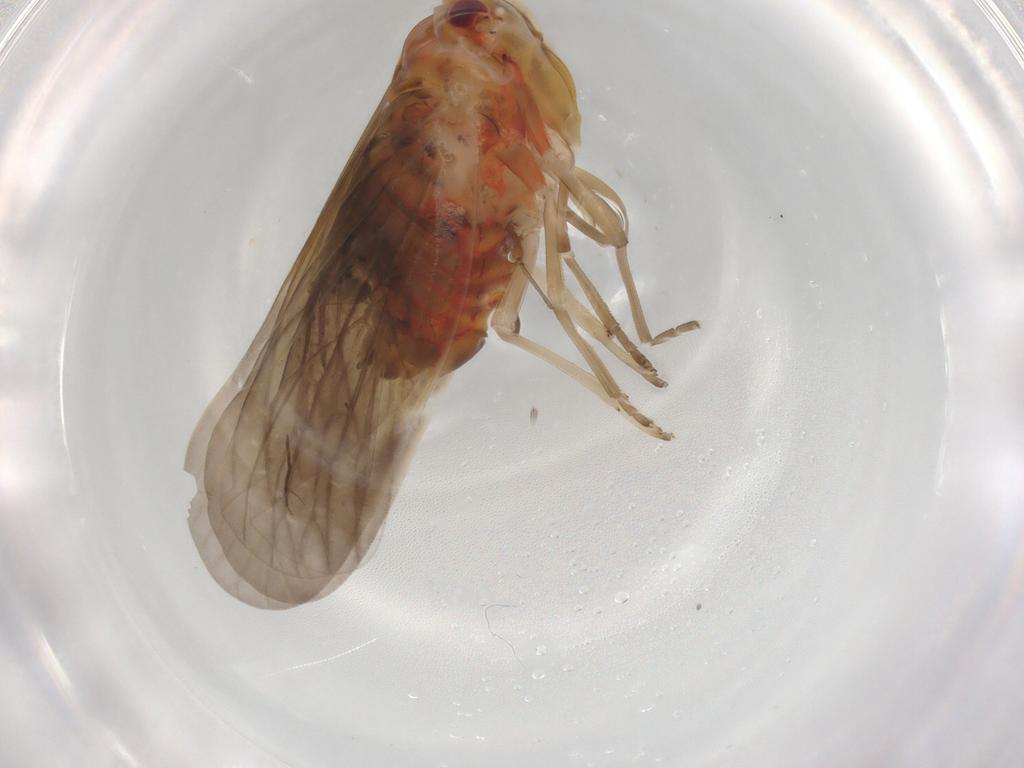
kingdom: Animalia
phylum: Arthropoda
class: Insecta
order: Hemiptera
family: Derbidae
